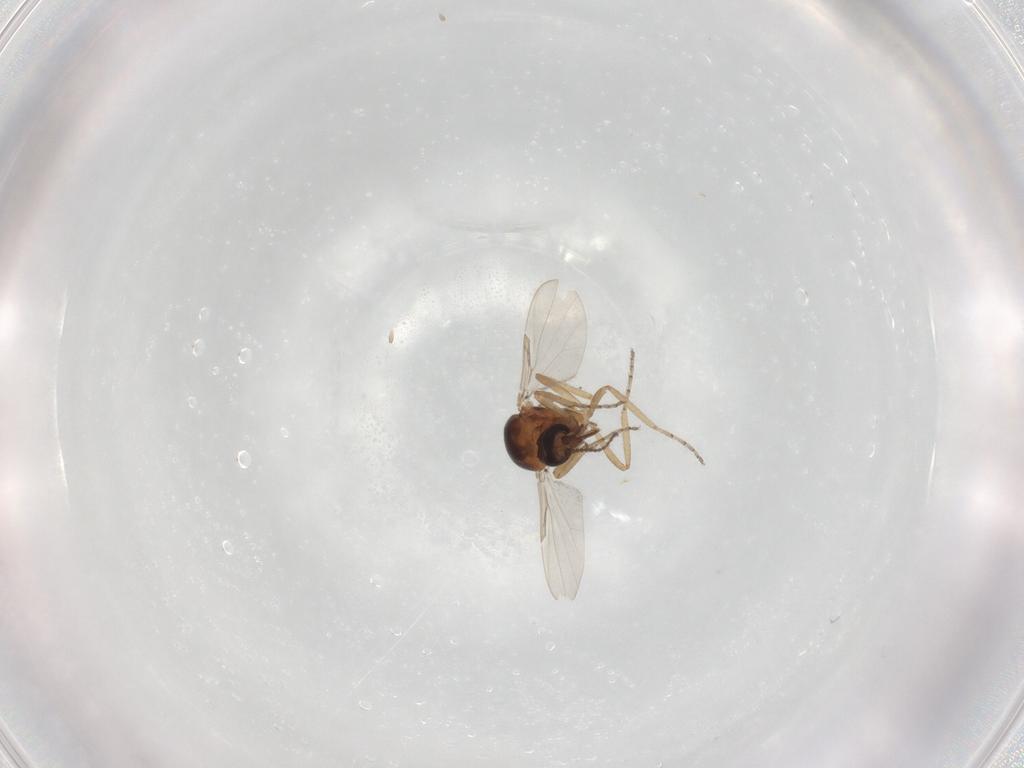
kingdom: Animalia
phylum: Arthropoda
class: Insecta
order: Diptera
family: Ceratopogonidae
